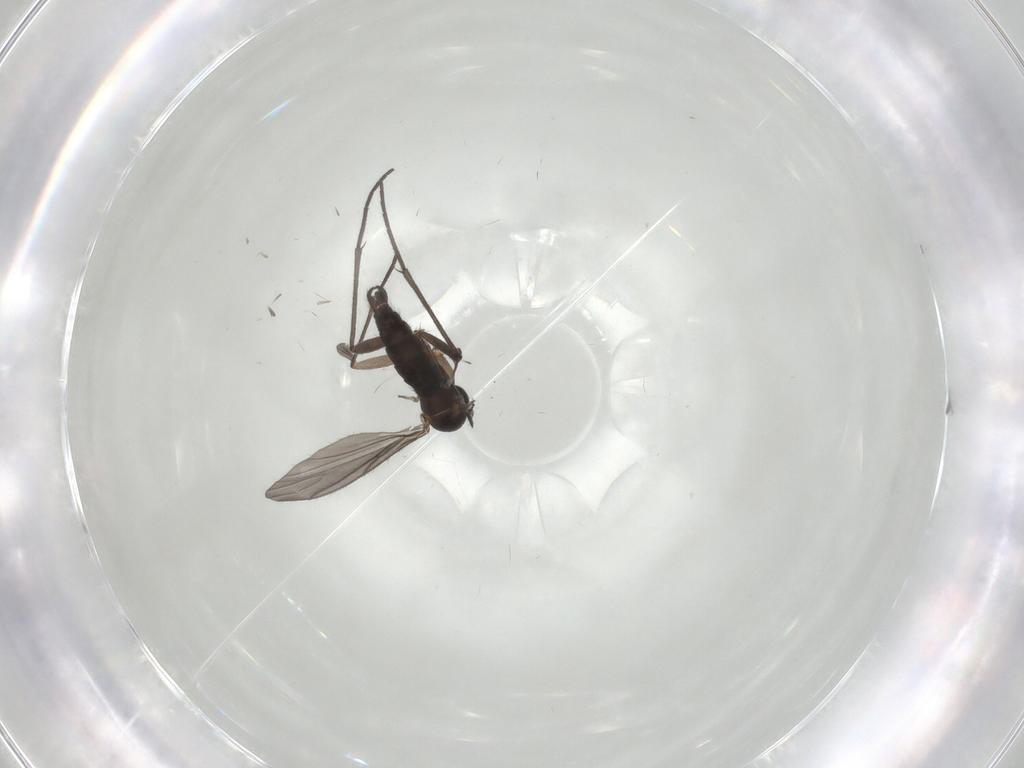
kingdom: Animalia
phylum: Arthropoda
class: Insecta
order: Diptera
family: Sciaridae
